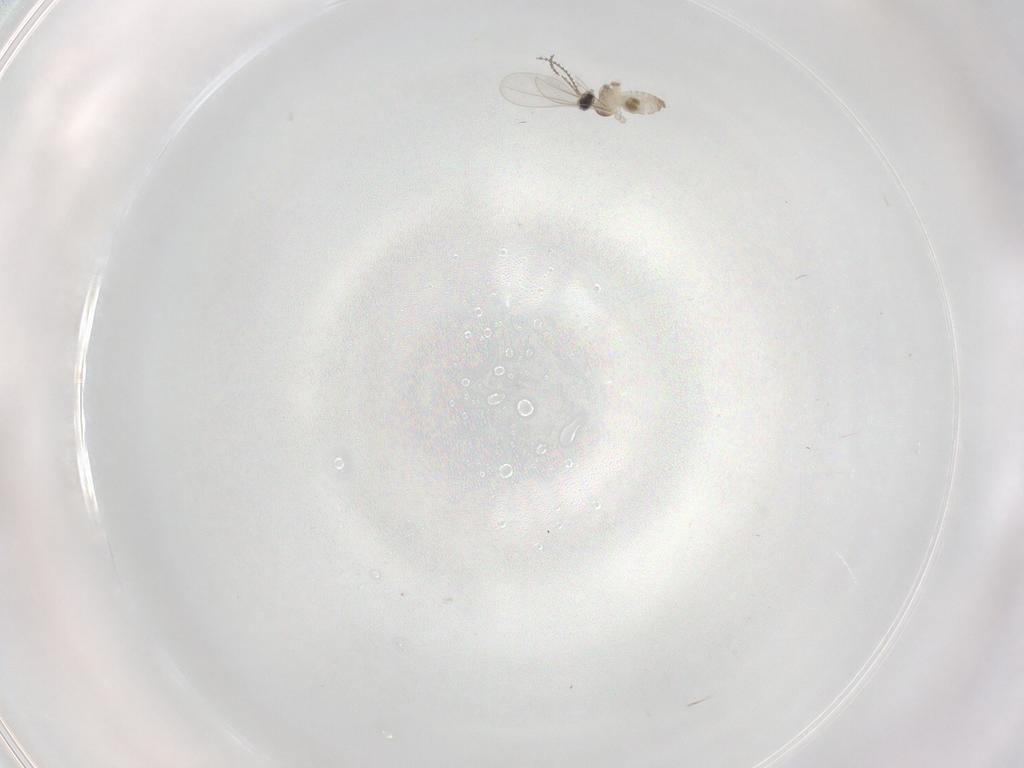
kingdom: Animalia
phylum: Arthropoda
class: Insecta
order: Diptera
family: Cecidomyiidae
